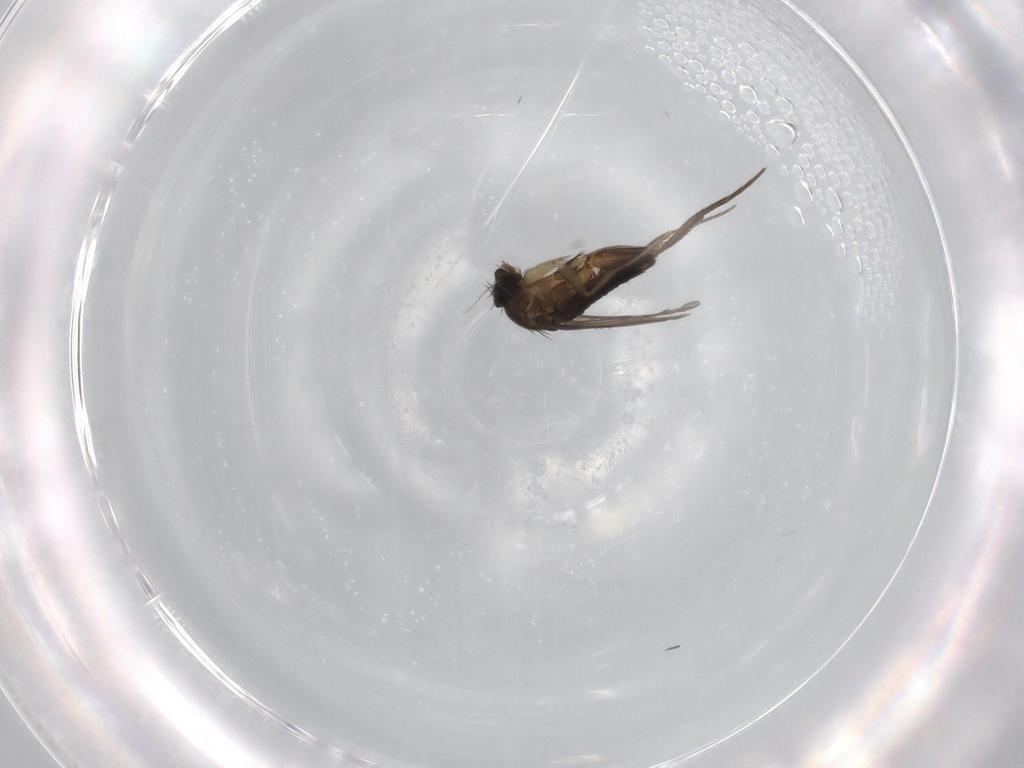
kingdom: Animalia
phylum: Arthropoda
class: Insecta
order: Diptera
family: Phoridae
